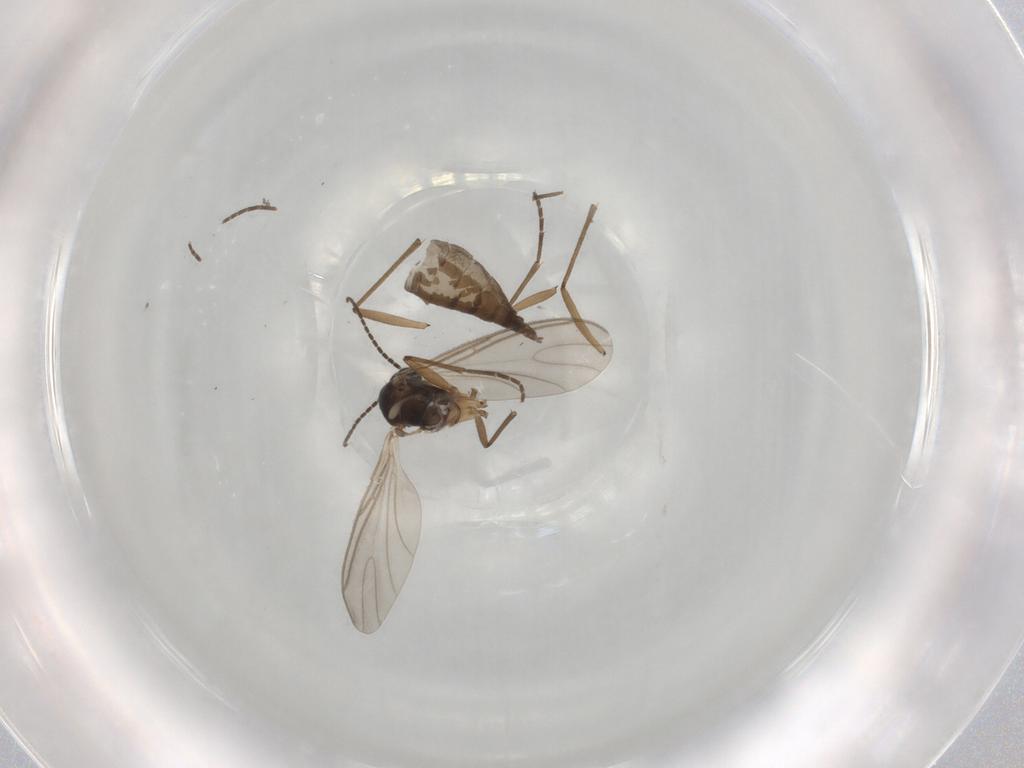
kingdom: Animalia
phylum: Arthropoda
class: Insecta
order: Diptera
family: Sciaridae
